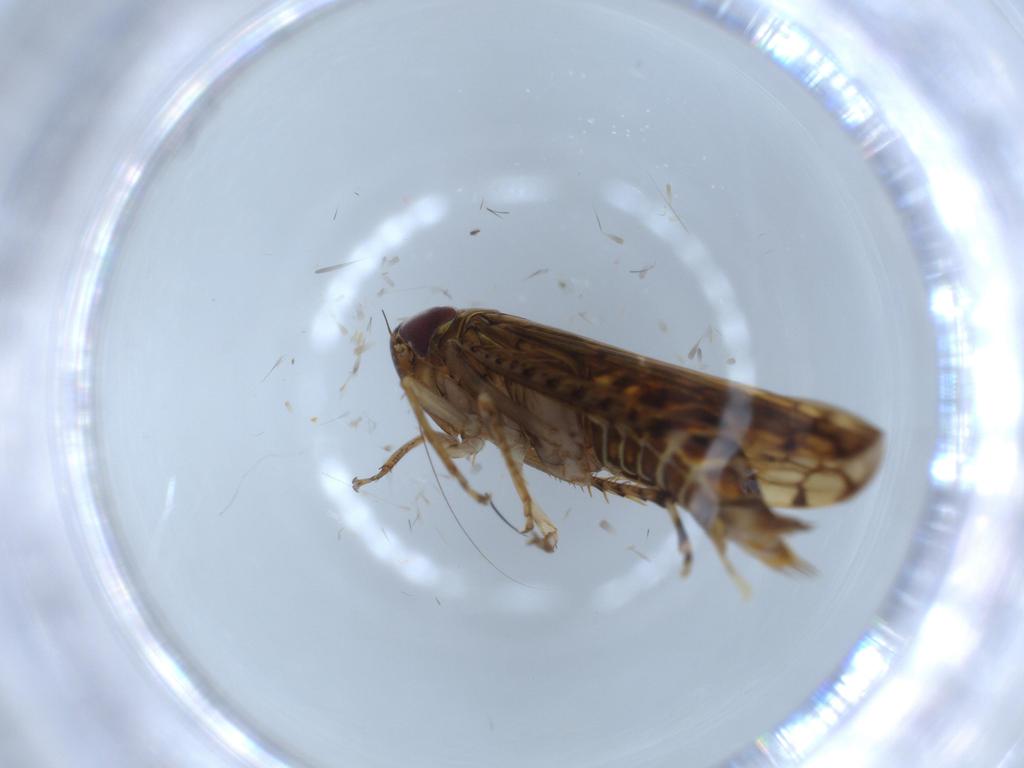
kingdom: Animalia
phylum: Arthropoda
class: Insecta
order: Hemiptera
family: Cicadellidae
